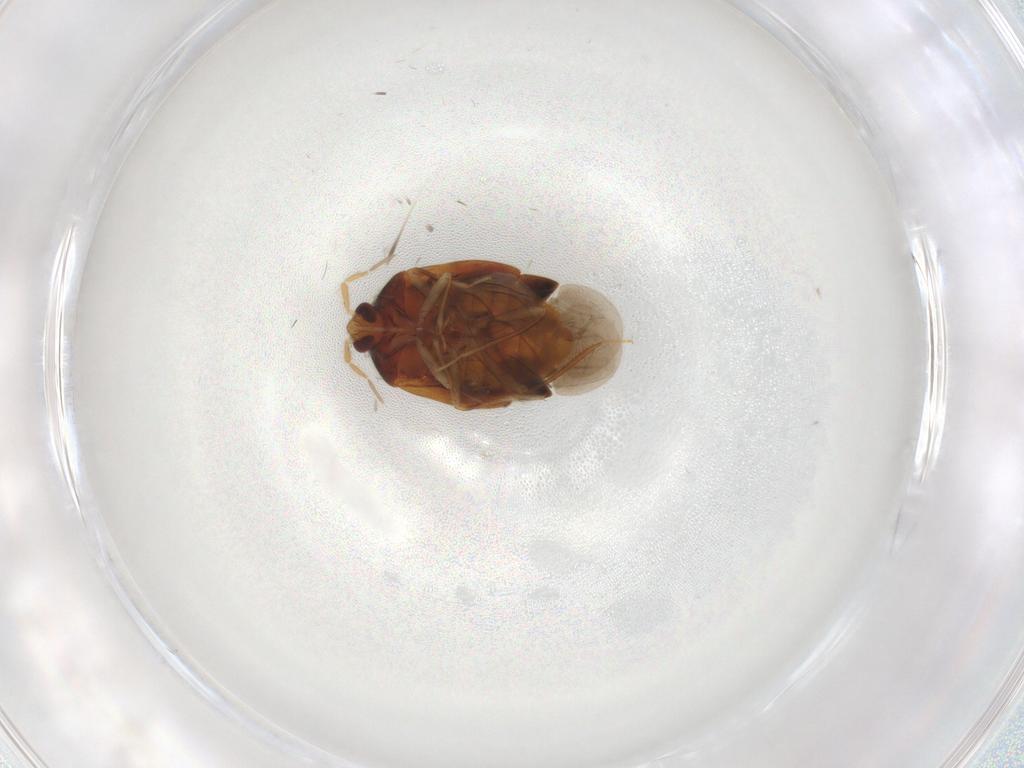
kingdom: Animalia
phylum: Arthropoda
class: Insecta
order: Hemiptera
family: Anthocoridae
